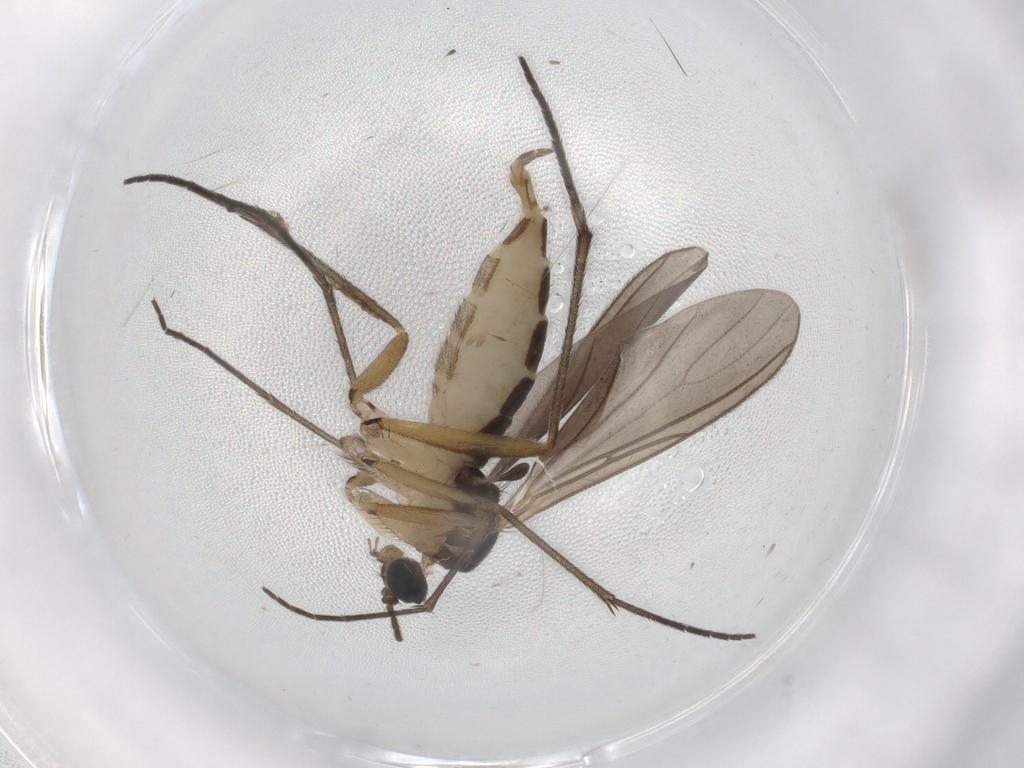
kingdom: Animalia
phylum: Arthropoda
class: Insecta
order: Diptera
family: Sciaridae
